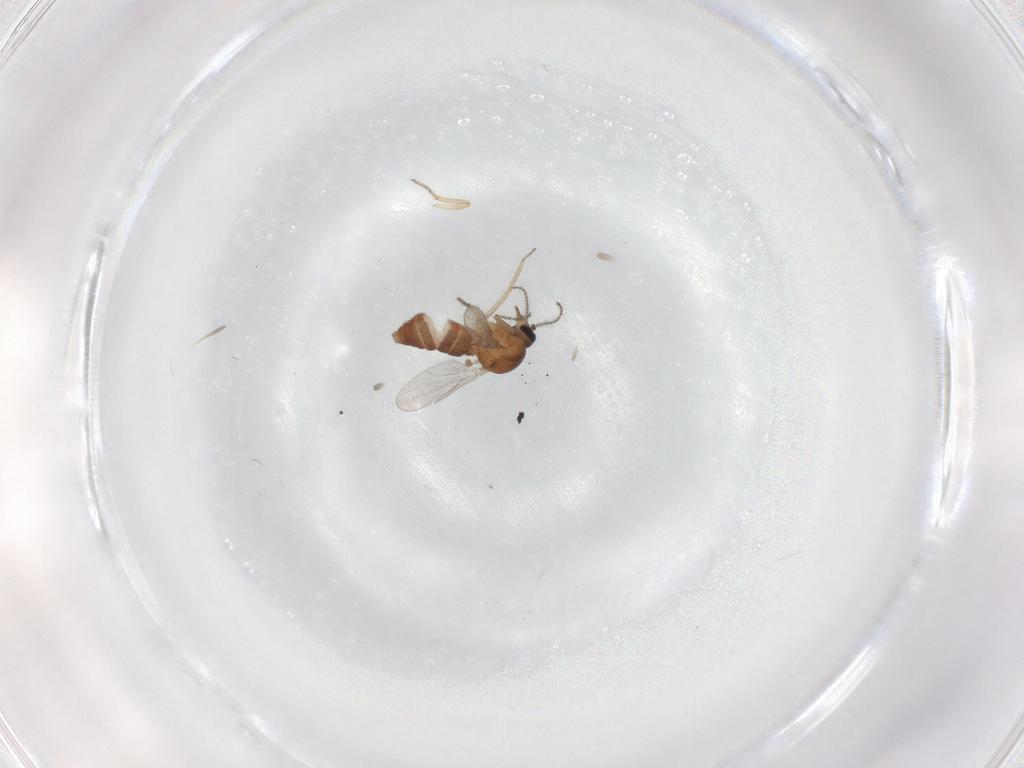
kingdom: Animalia
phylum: Arthropoda
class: Insecta
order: Diptera
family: Ceratopogonidae
